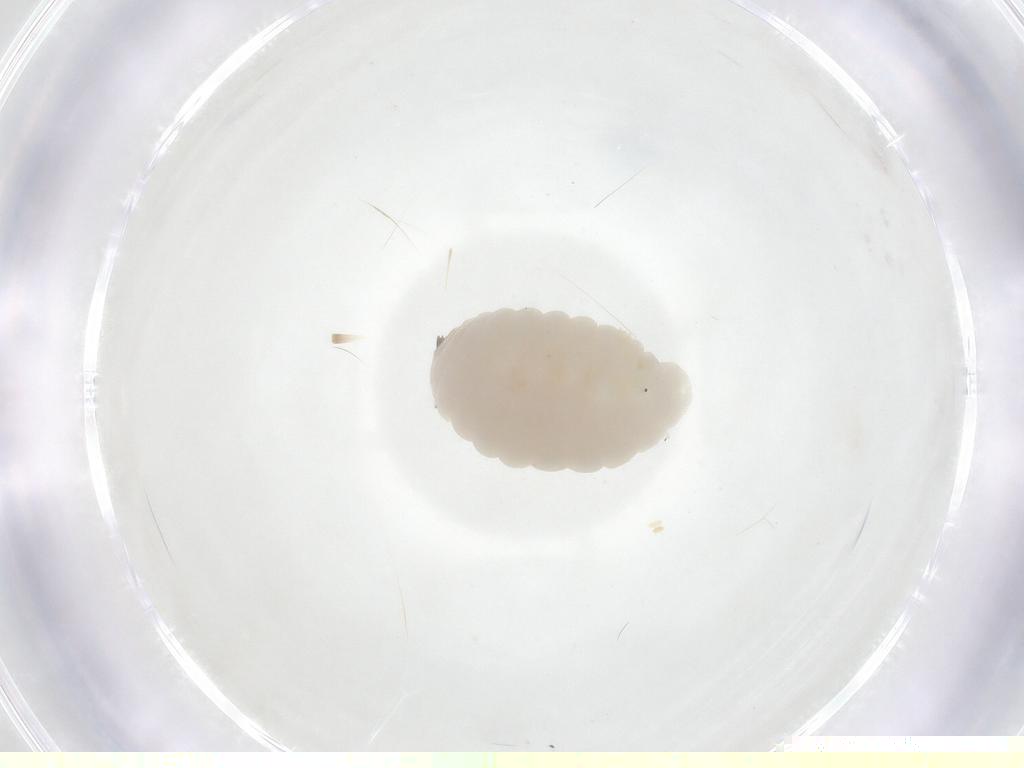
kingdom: Animalia
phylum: Arthropoda
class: Insecta
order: Diptera
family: Fergusoninidae
